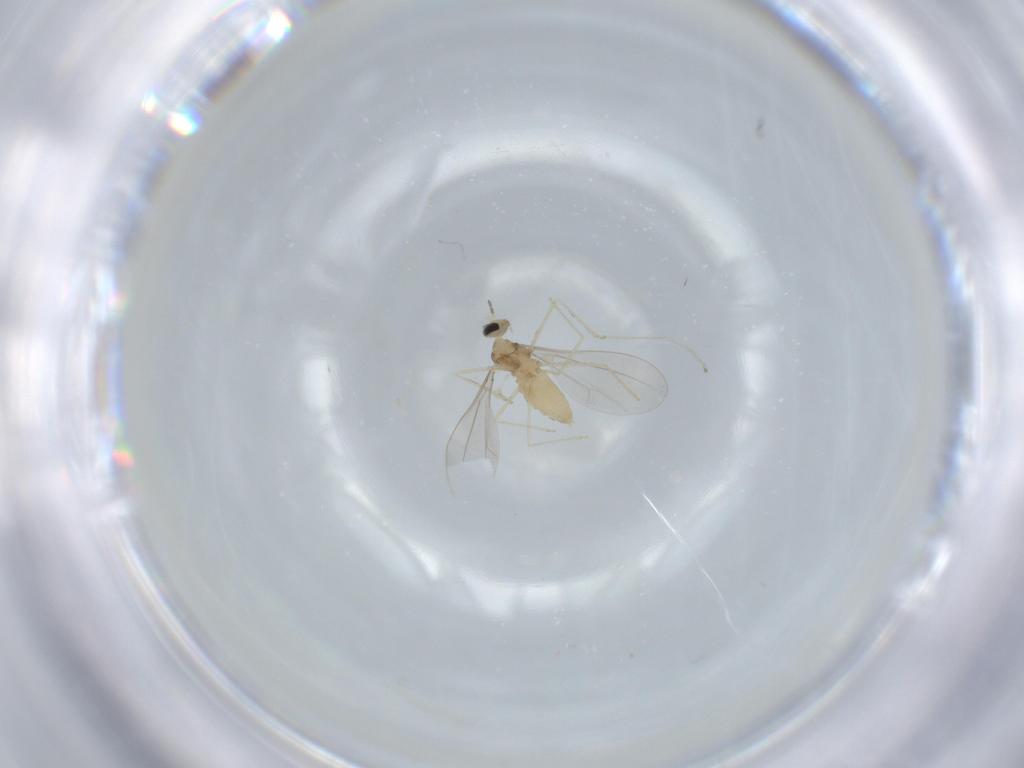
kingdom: Animalia
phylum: Arthropoda
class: Insecta
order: Diptera
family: Cecidomyiidae
